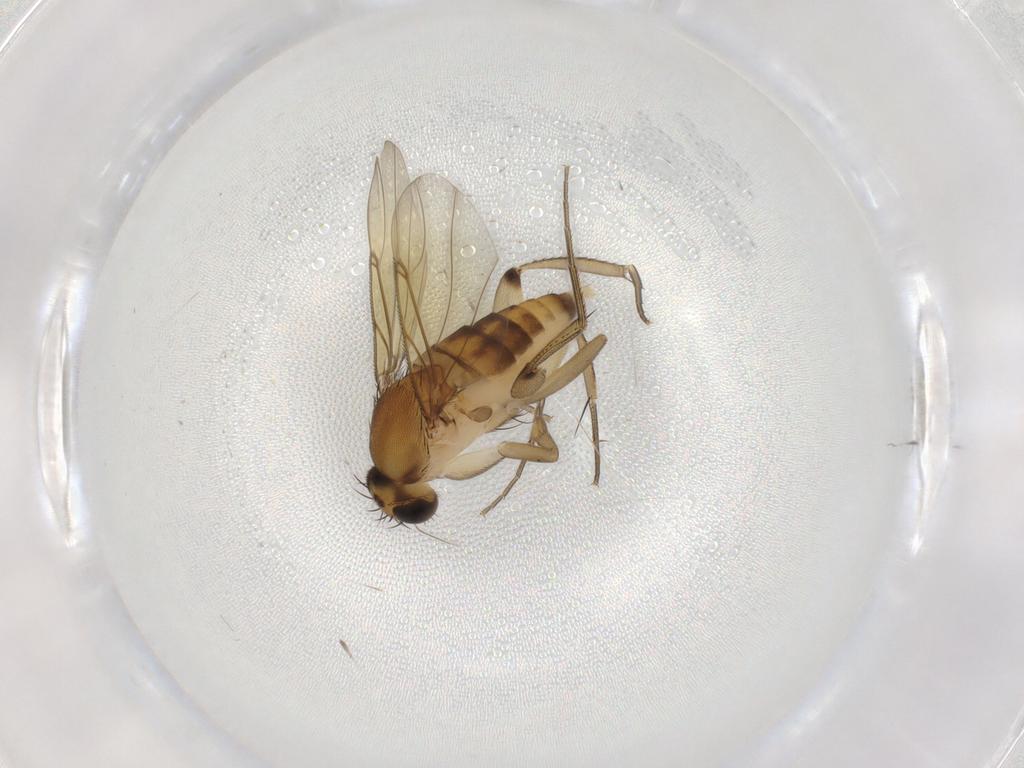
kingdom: Animalia
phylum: Arthropoda
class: Insecta
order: Diptera
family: Phoridae
